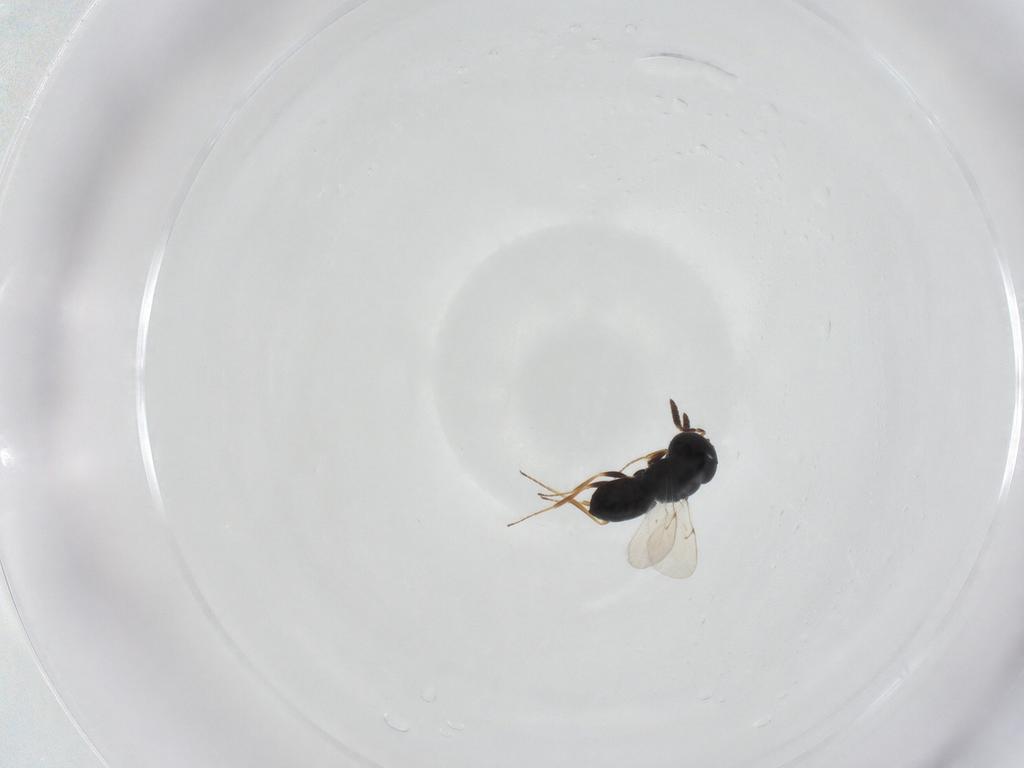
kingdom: Animalia
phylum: Arthropoda
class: Insecta
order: Hymenoptera
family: Scelionidae
